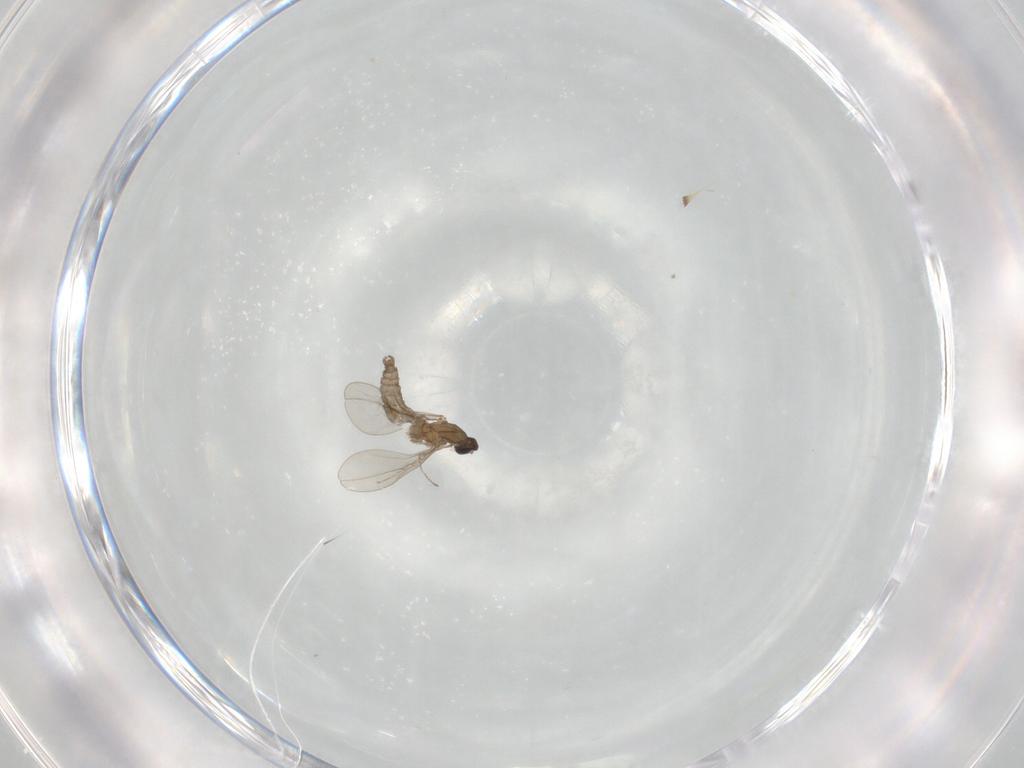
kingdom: Animalia
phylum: Arthropoda
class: Insecta
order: Diptera
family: Cecidomyiidae
